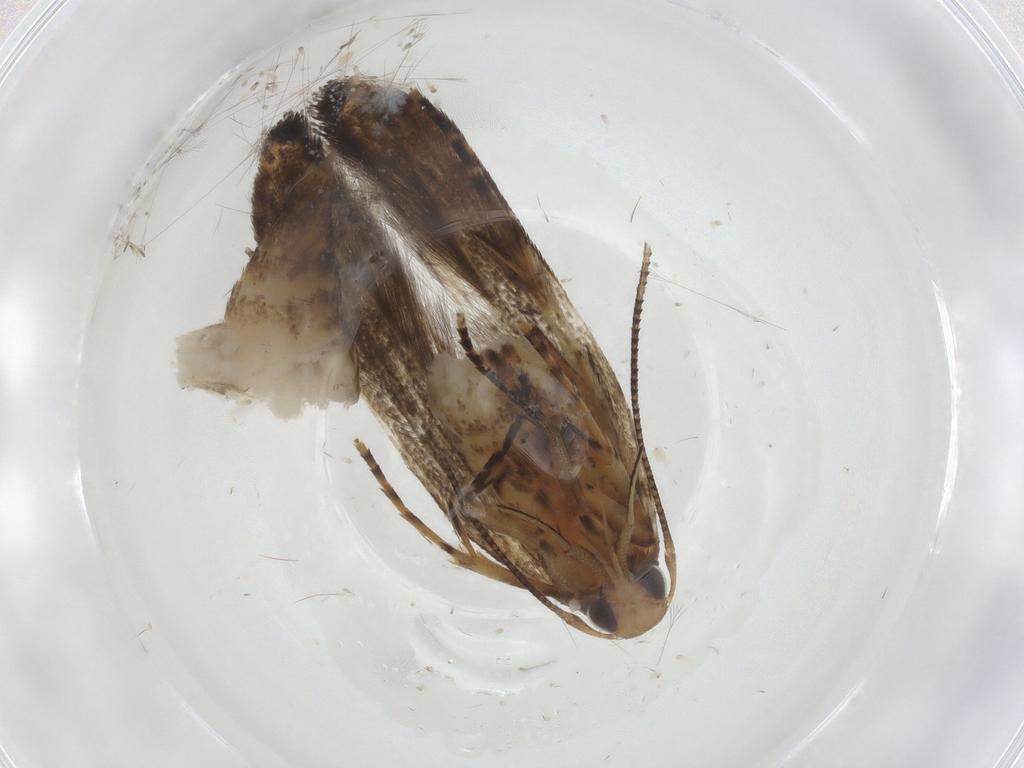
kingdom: Animalia
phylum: Arthropoda
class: Insecta
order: Lepidoptera
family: Cosmopterigidae
